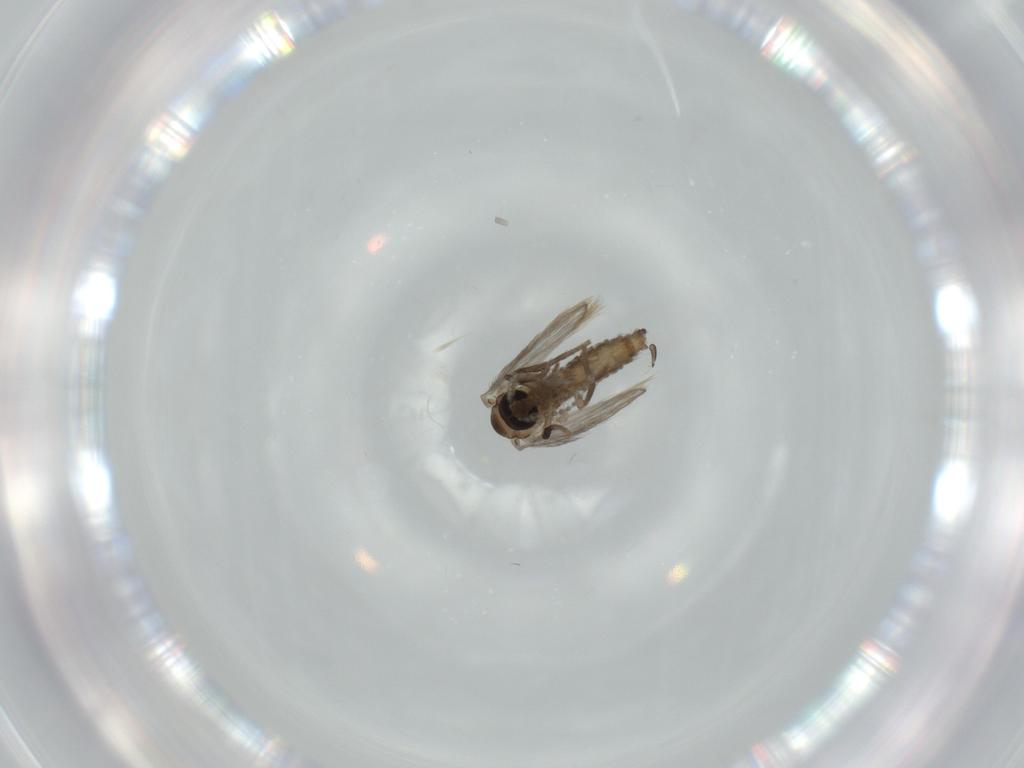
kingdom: Animalia
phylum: Arthropoda
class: Insecta
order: Diptera
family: Psychodidae
